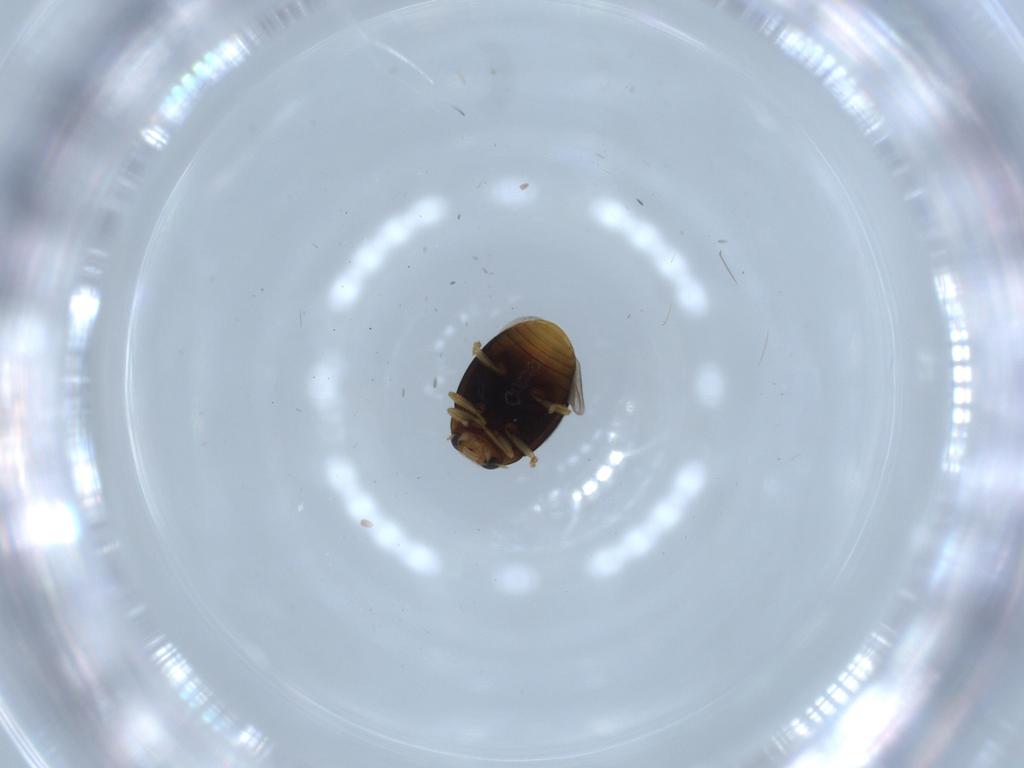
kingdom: Animalia
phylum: Arthropoda
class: Insecta
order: Coleoptera
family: Coccinellidae
